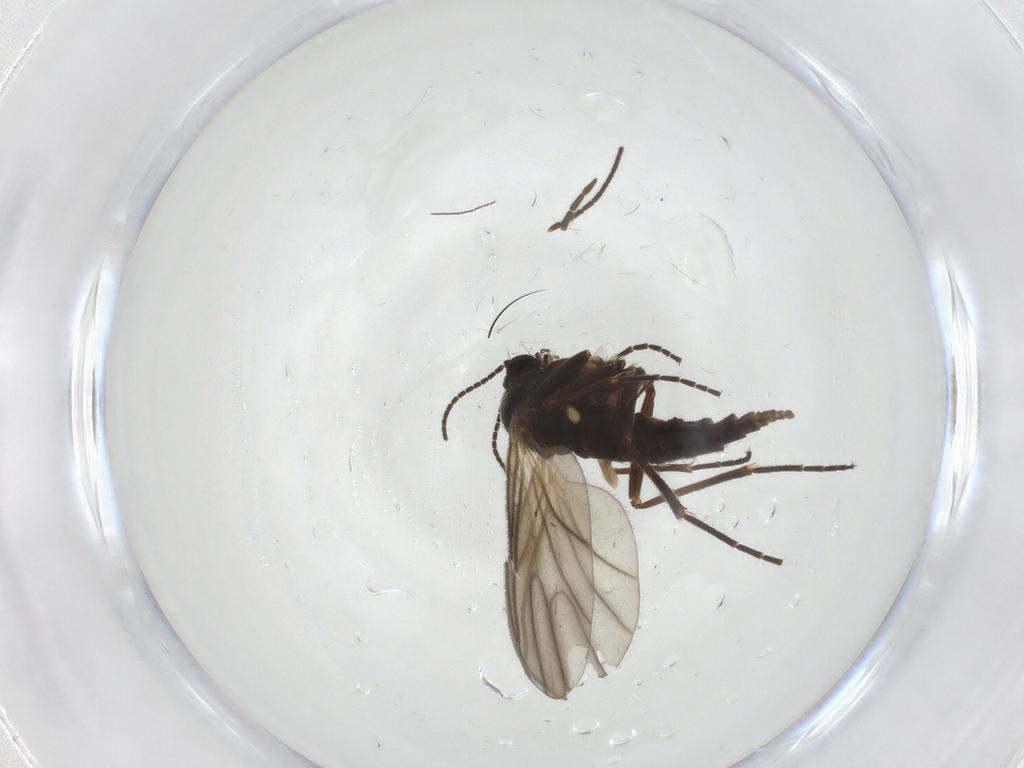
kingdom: Animalia
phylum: Arthropoda
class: Insecta
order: Diptera
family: Sciaridae
